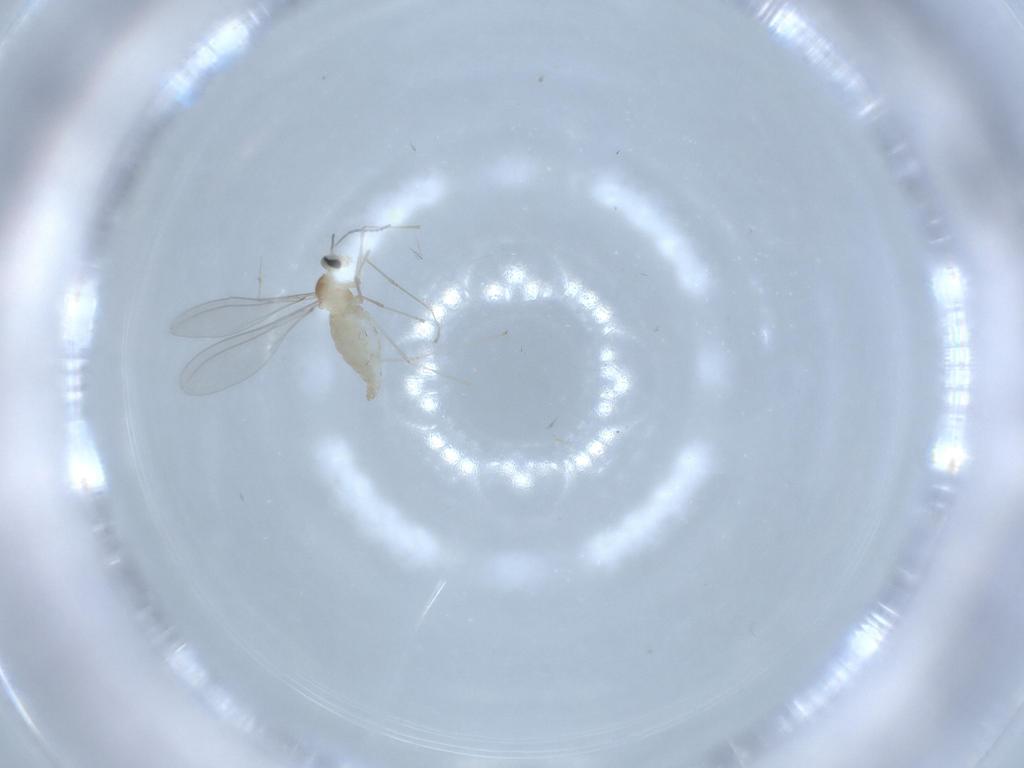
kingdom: Animalia
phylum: Arthropoda
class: Insecta
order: Diptera
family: Cecidomyiidae
